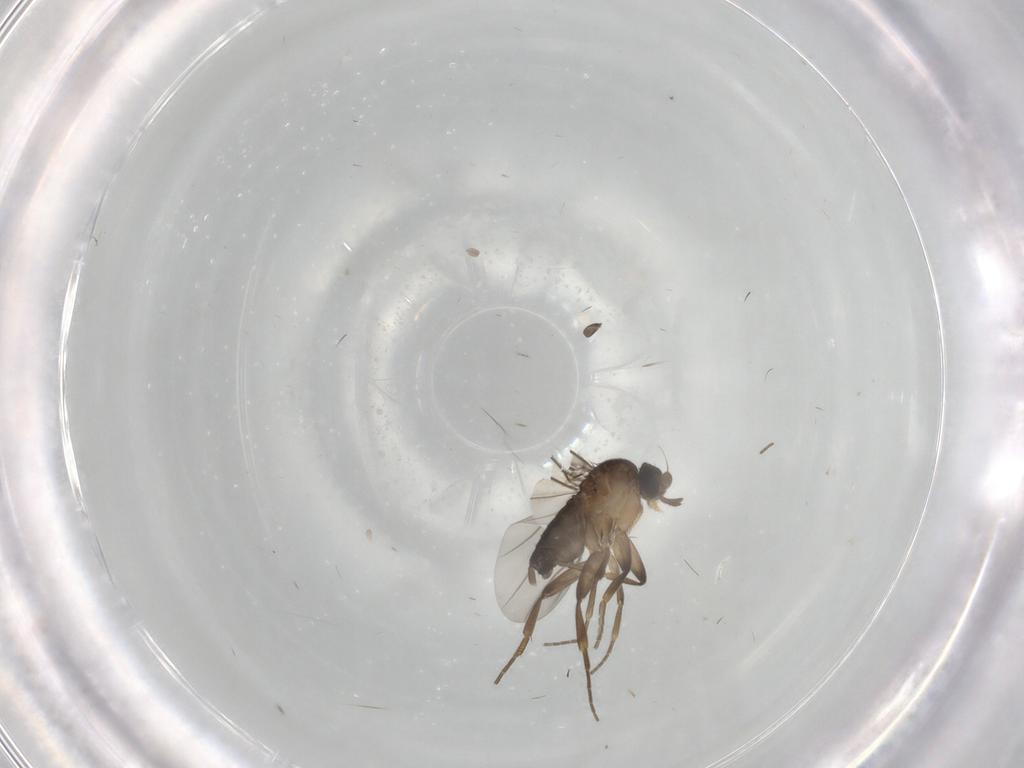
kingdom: Animalia
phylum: Arthropoda
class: Insecta
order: Diptera
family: Phoridae
